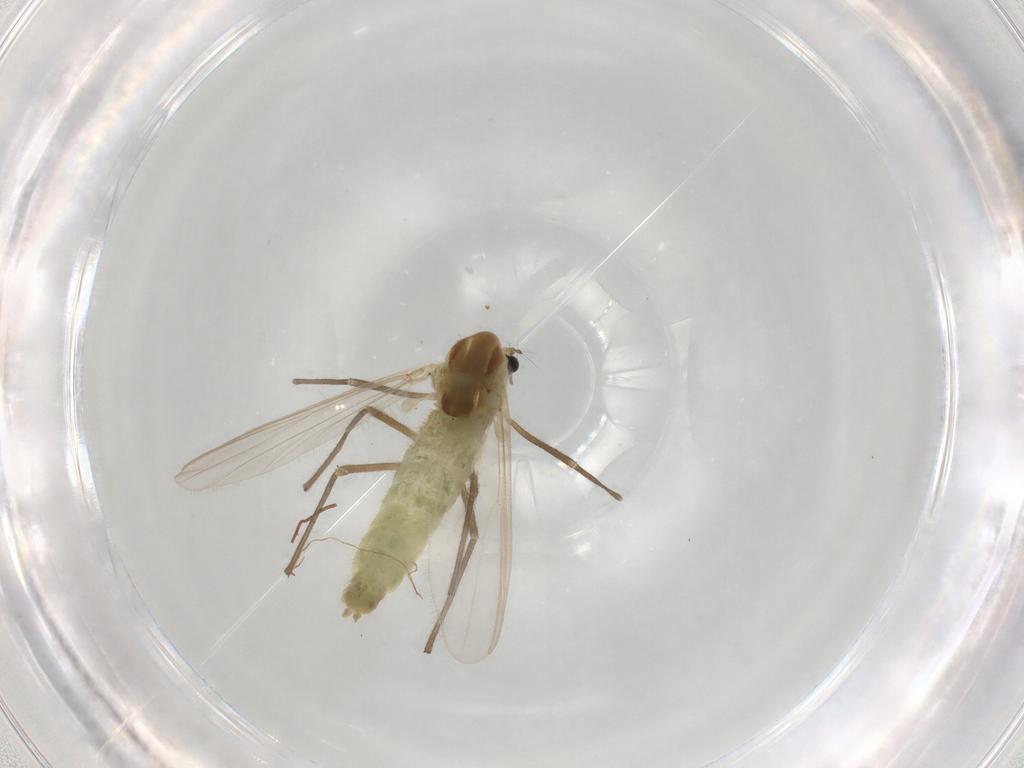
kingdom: Animalia
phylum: Arthropoda
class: Insecta
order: Diptera
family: Chironomidae
